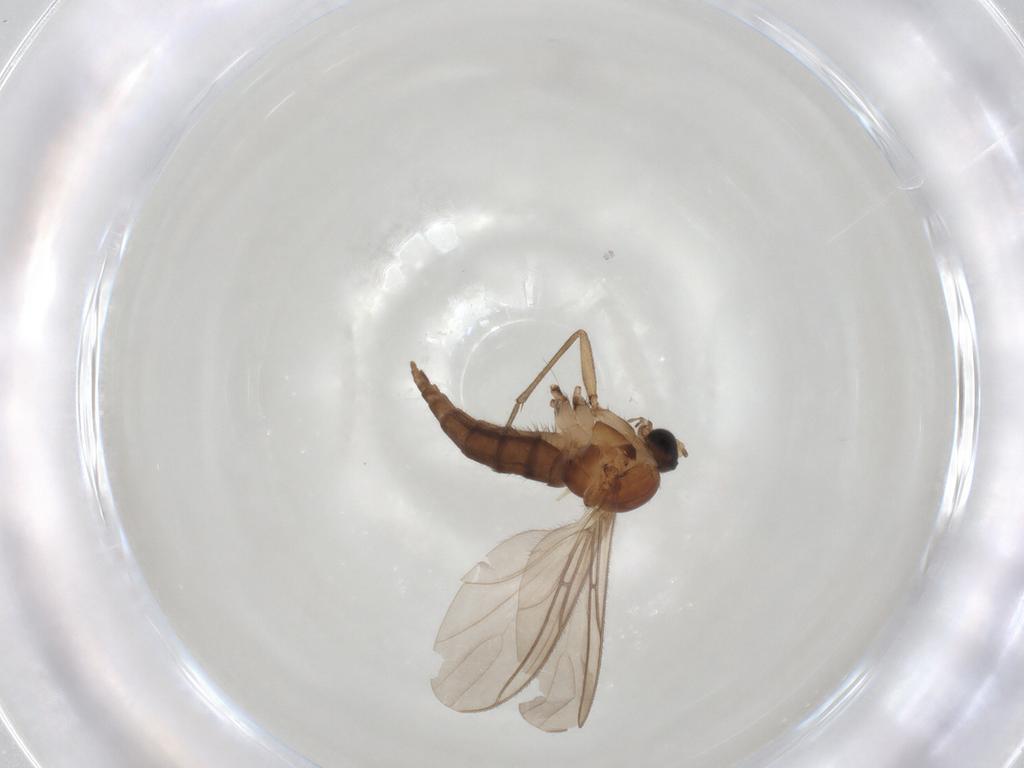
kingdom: Animalia
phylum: Arthropoda
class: Insecta
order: Diptera
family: Sciaridae
